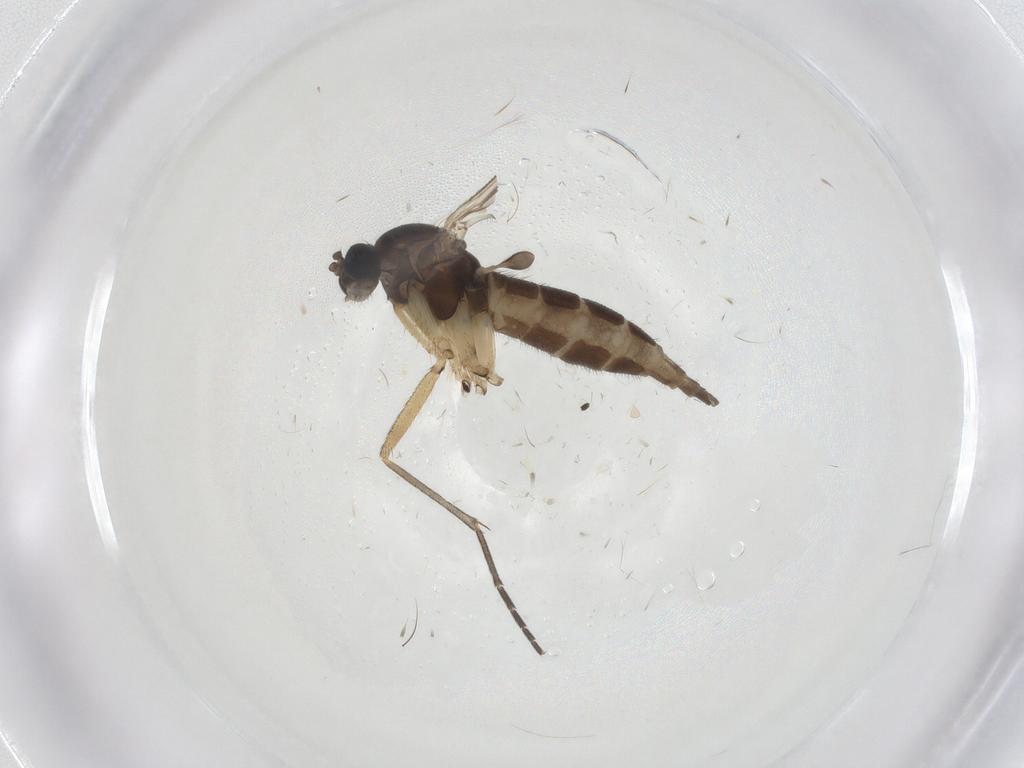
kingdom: Animalia
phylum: Arthropoda
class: Insecta
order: Diptera
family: Sciaridae
